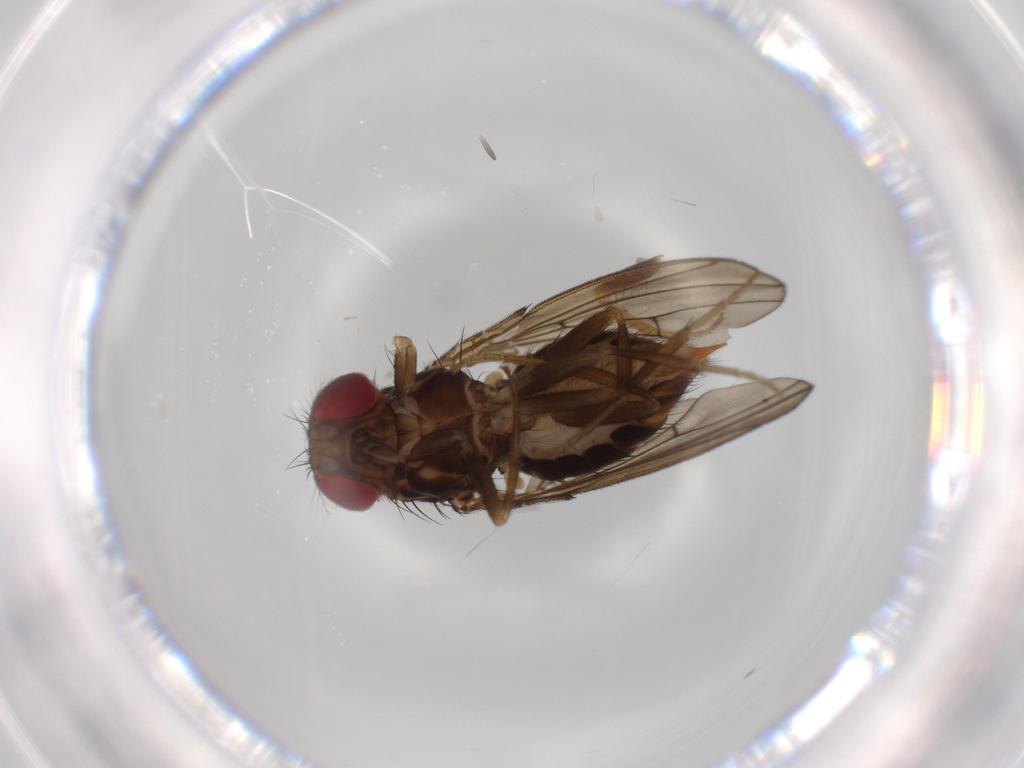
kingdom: Animalia
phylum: Arthropoda
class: Insecta
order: Diptera
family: Drosophilidae
